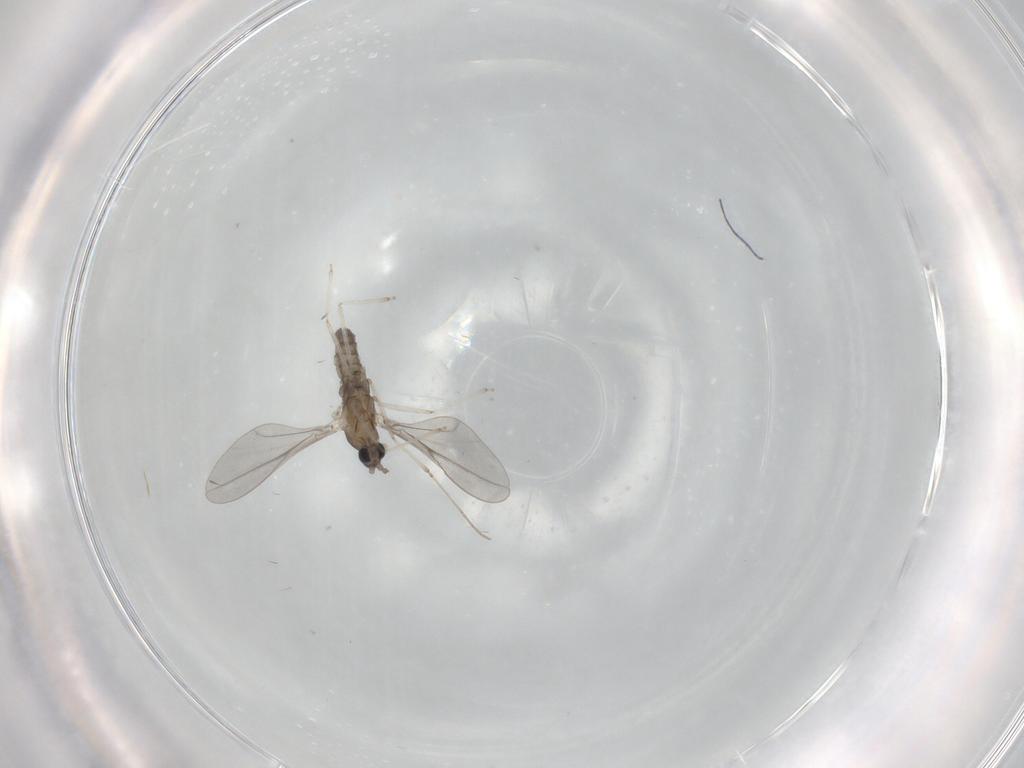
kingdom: Animalia
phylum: Arthropoda
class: Insecta
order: Diptera
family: Cecidomyiidae
